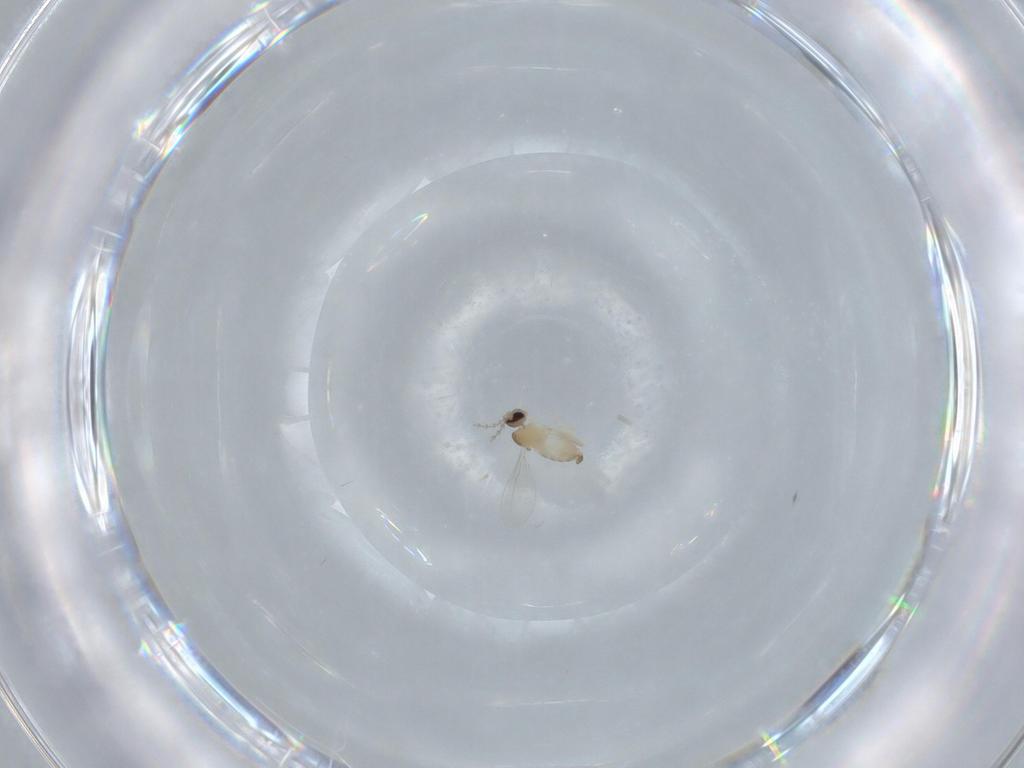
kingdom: Animalia
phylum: Arthropoda
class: Insecta
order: Diptera
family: Cecidomyiidae
